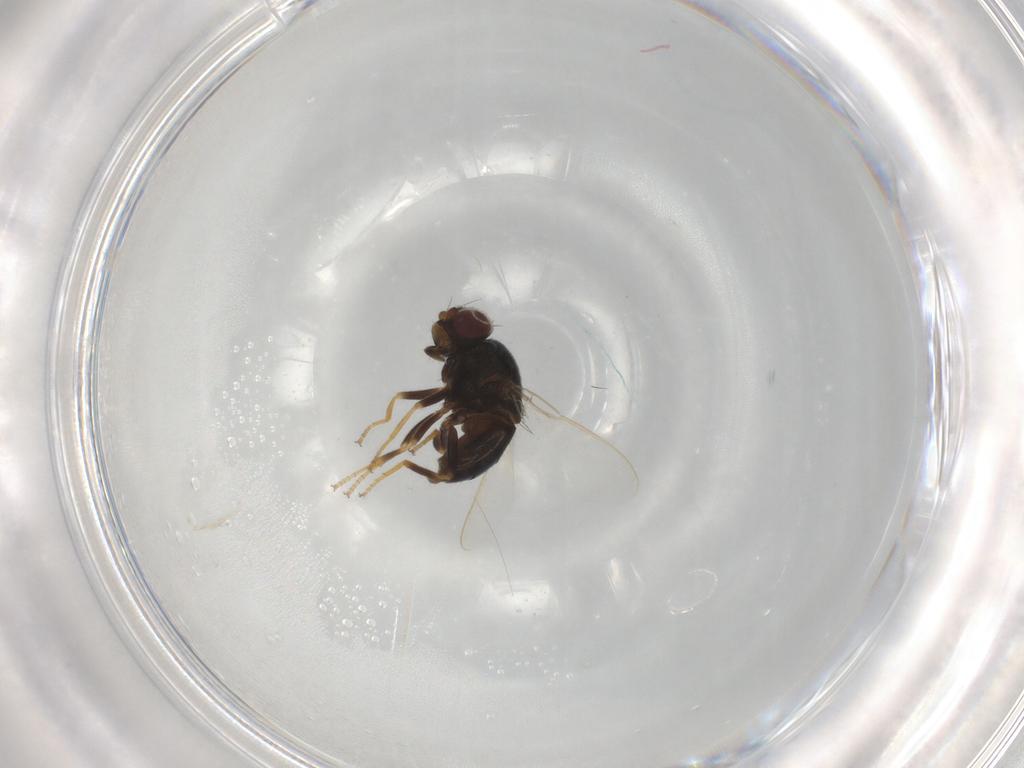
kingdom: Animalia
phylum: Arthropoda
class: Insecta
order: Diptera
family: Chloropidae
